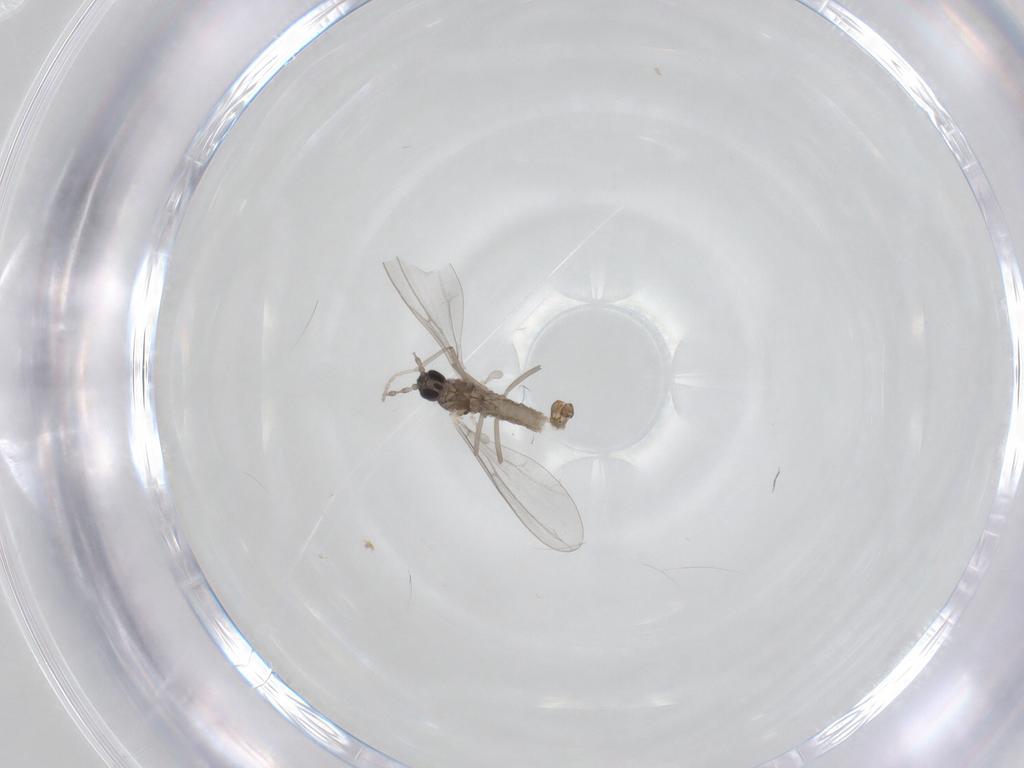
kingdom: Animalia
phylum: Arthropoda
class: Insecta
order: Diptera
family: Cecidomyiidae
